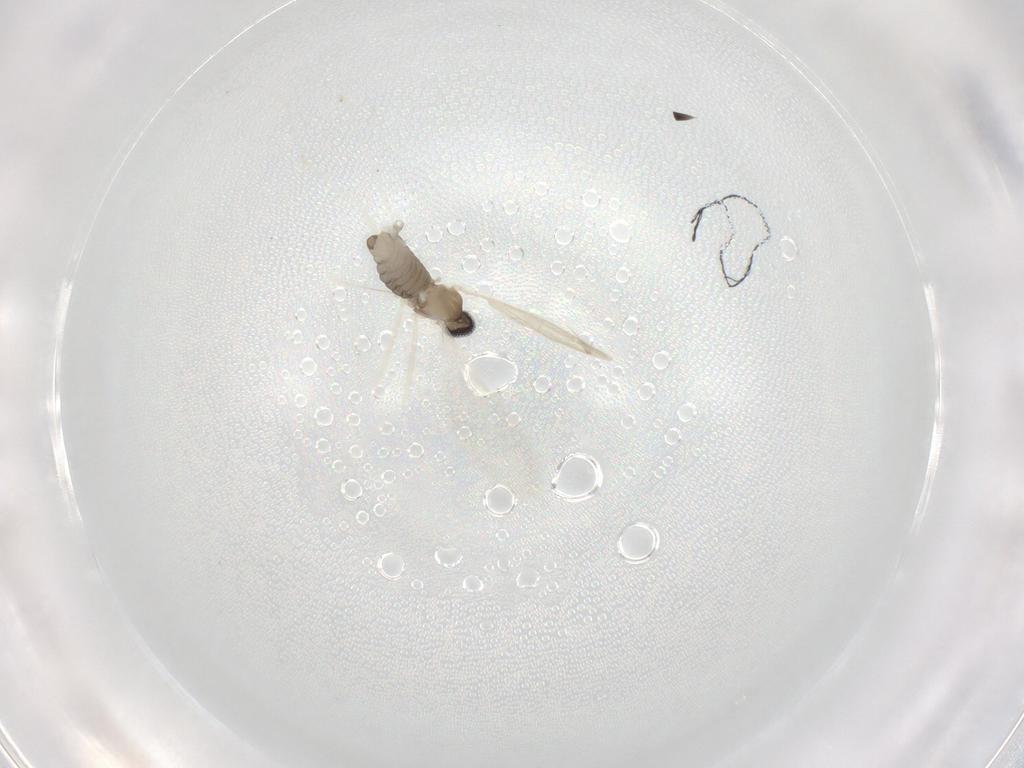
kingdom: Animalia
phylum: Arthropoda
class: Insecta
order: Diptera
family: Cecidomyiidae
